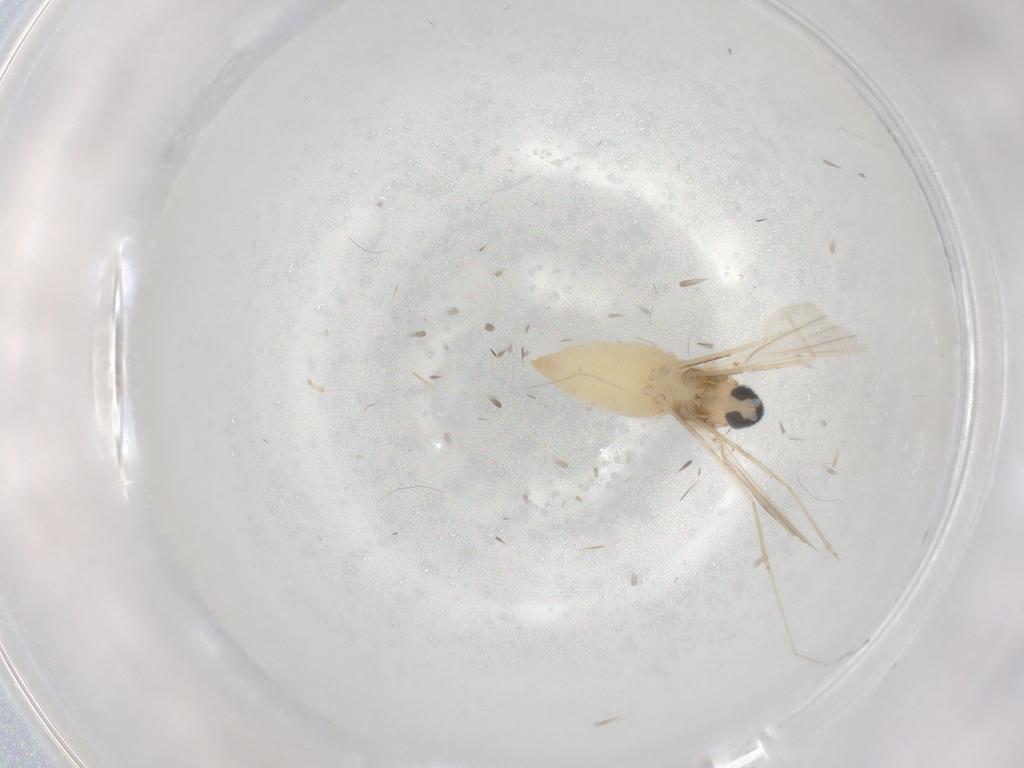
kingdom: Animalia
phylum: Arthropoda
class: Insecta
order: Diptera
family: Cecidomyiidae
